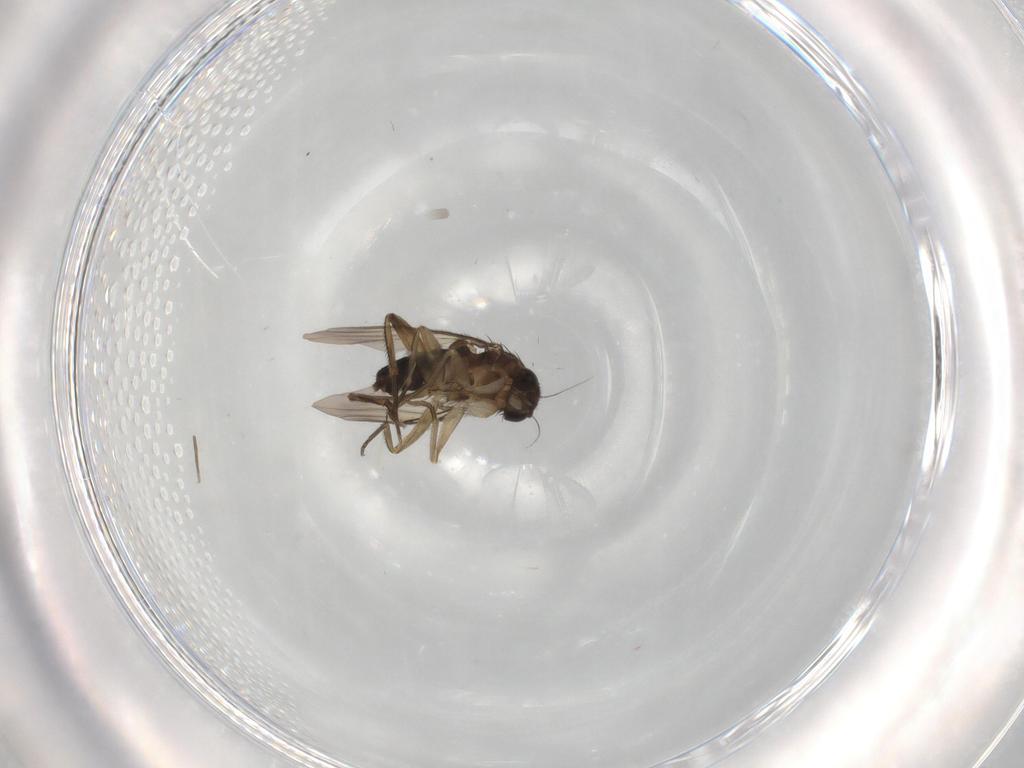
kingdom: Animalia
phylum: Arthropoda
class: Insecta
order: Diptera
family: Phoridae
